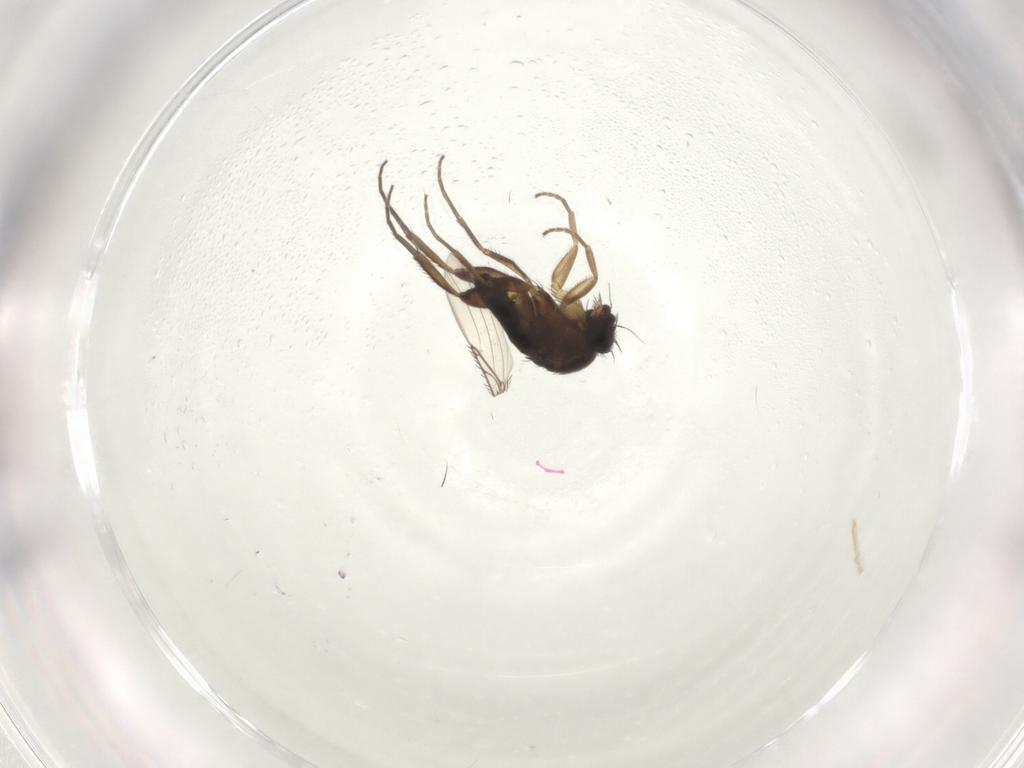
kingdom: Animalia
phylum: Arthropoda
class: Insecta
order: Diptera
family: Phoridae
